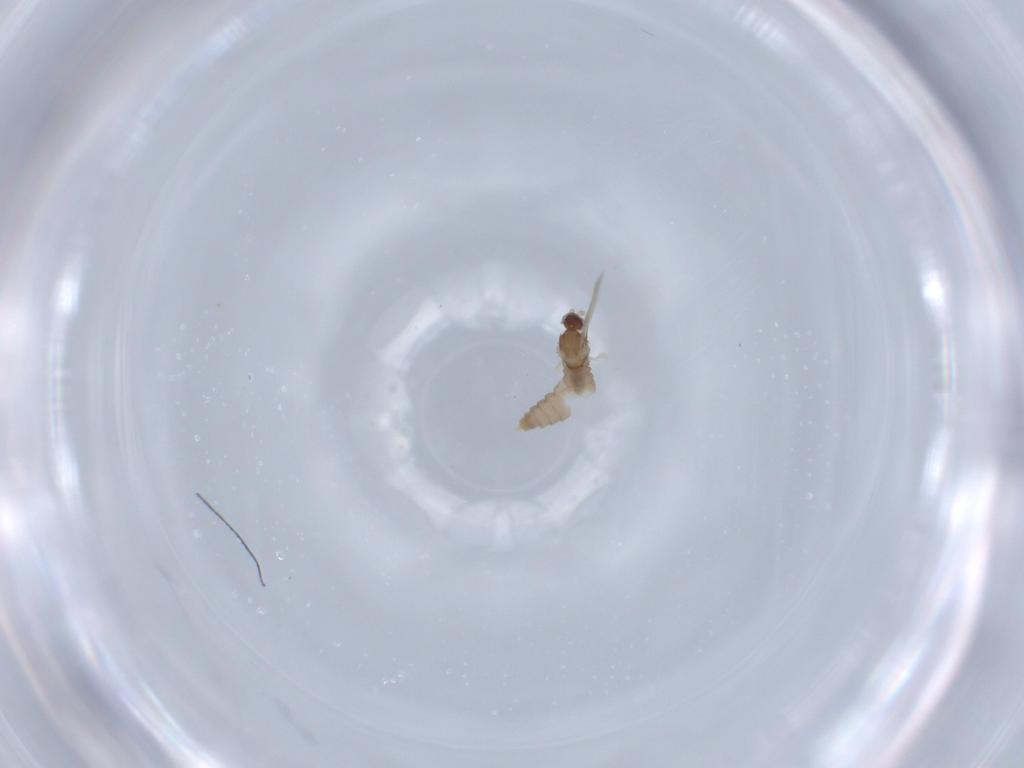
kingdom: Animalia
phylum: Arthropoda
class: Insecta
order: Diptera
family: Cecidomyiidae
